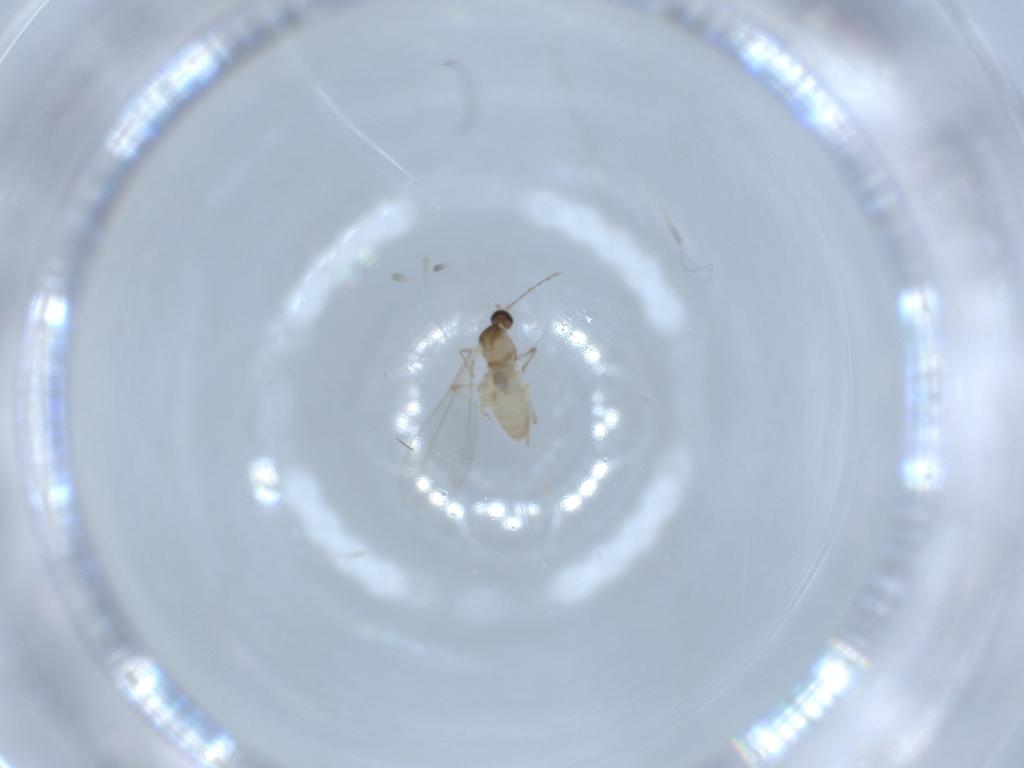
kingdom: Animalia
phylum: Arthropoda
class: Insecta
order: Diptera
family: Cecidomyiidae
